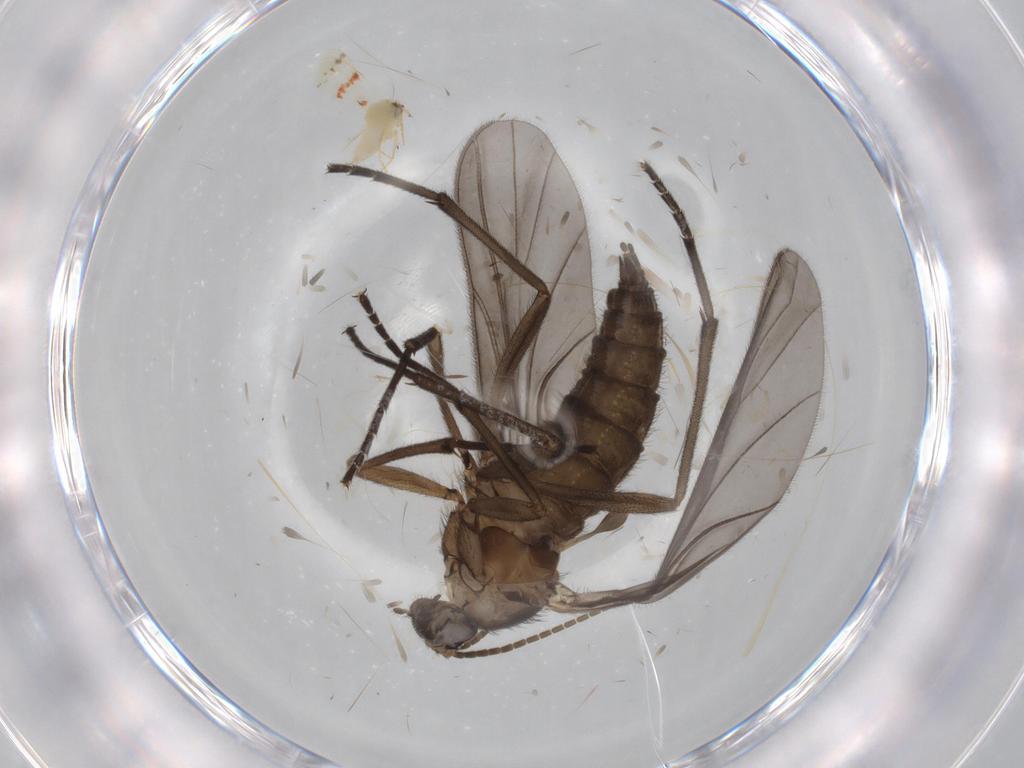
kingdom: Animalia
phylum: Arthropoda
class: Insecta
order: Diptera
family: Sciaridae
